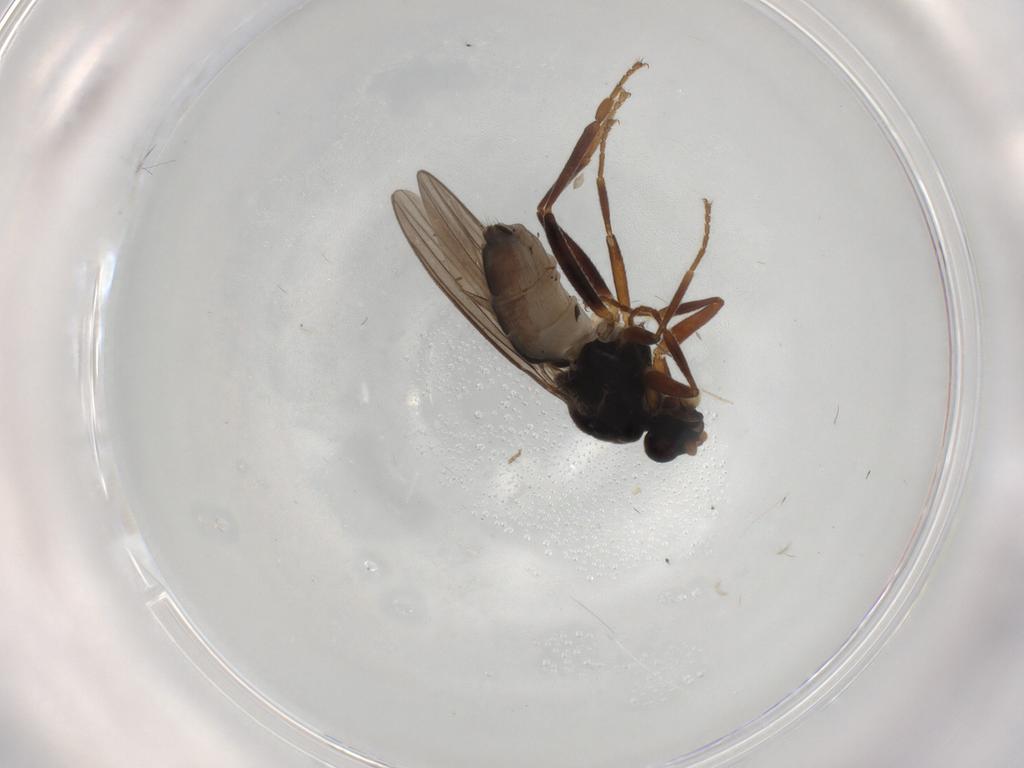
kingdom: Animalia
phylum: Arthropoda
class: Insecta
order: Diptera
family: Sphaeroceridae
